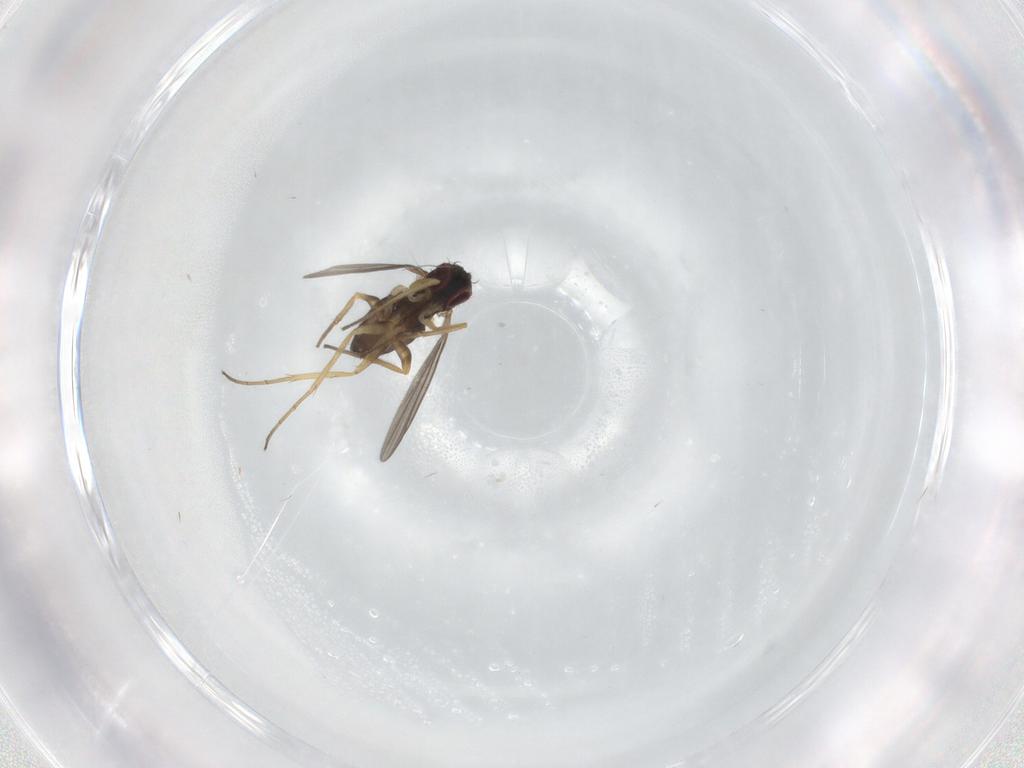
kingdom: Animalia
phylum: Arthropoda
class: Insecta
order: Diptera
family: Dolichopodidae
